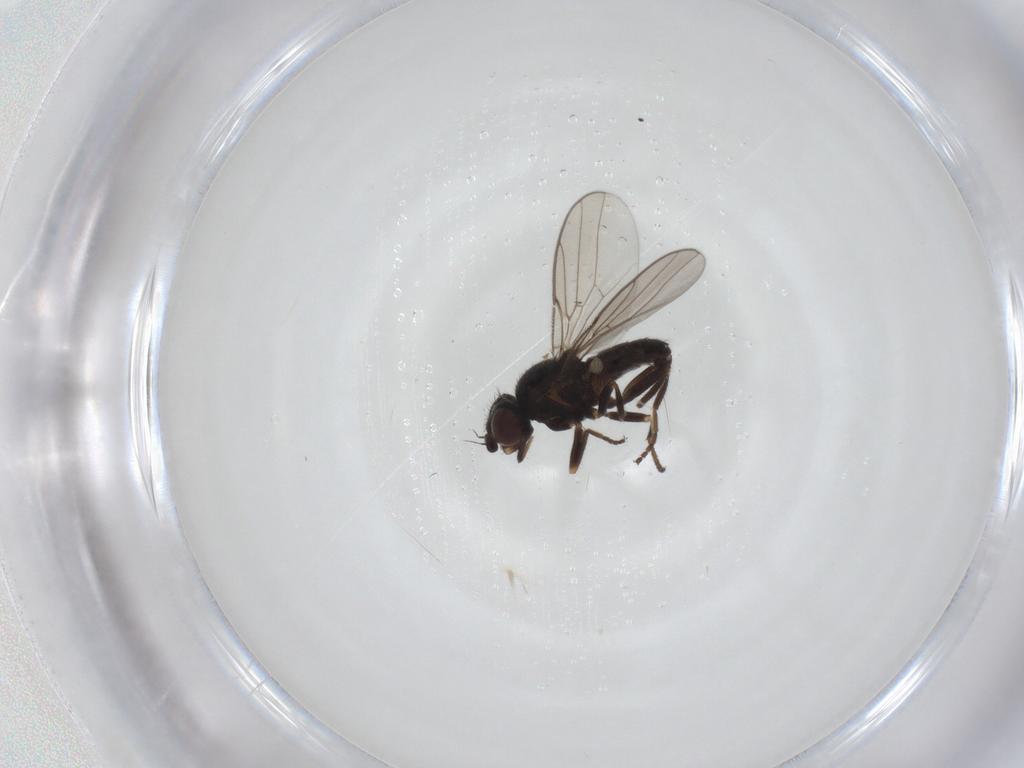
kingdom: Animalia
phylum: Arthropoda
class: Insecta
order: Diptera
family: Chloropidae
